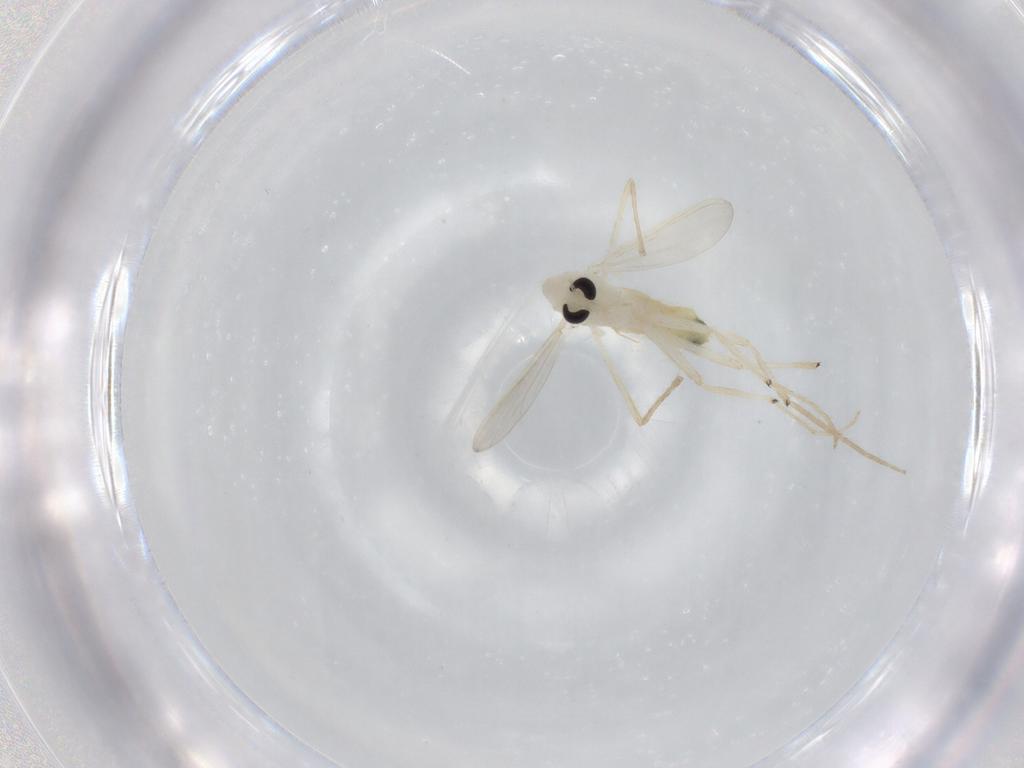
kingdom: Animalia
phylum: Arthropoda
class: Insecta
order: Diptera
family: Chironomidae
